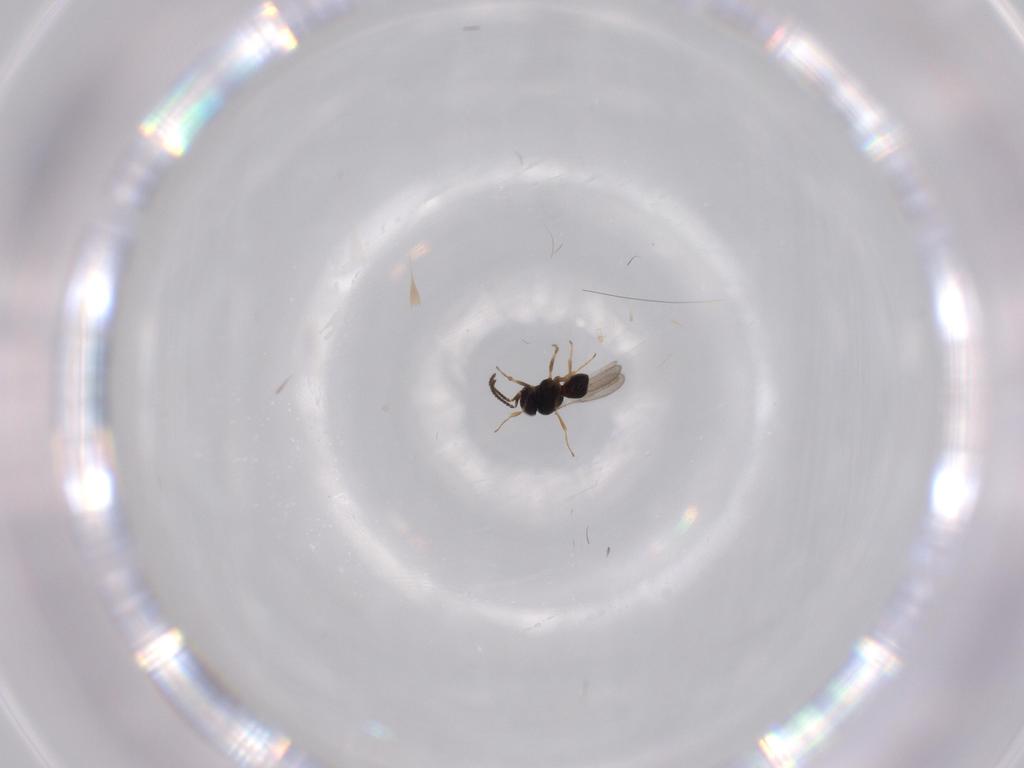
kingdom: Animalia
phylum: Arthropoda
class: Insecta
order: Hymenoptera
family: Scelionidae
